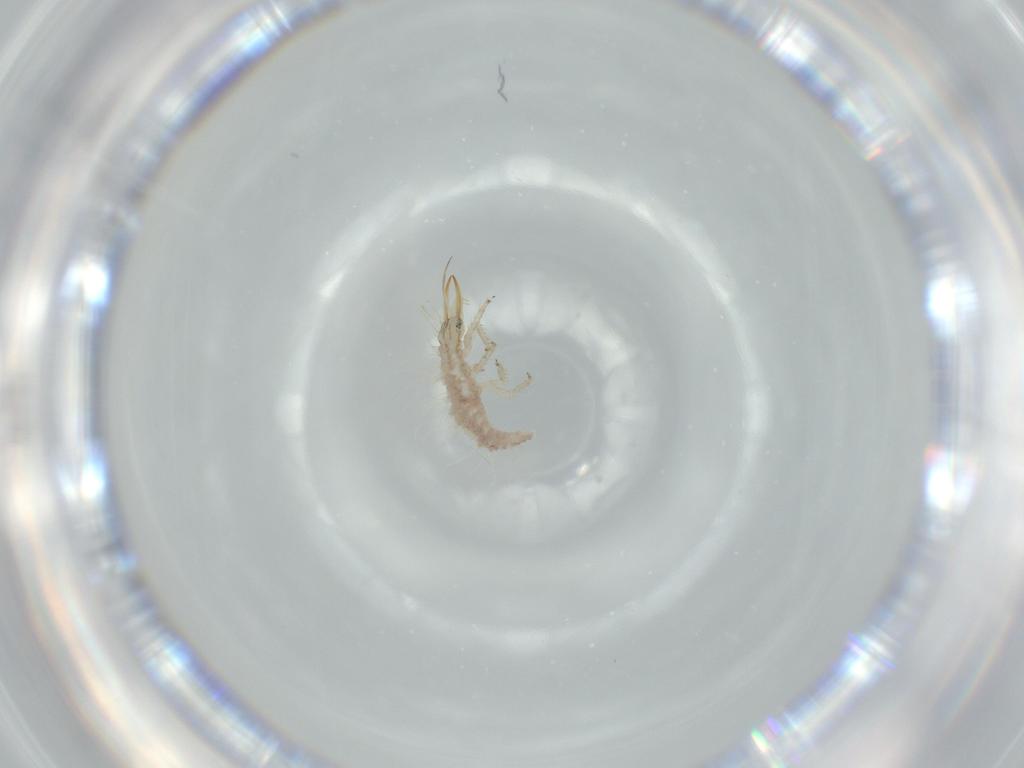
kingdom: Animalia
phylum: Arthropoda
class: Insecta
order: Neuroptera
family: Chrysopidae
